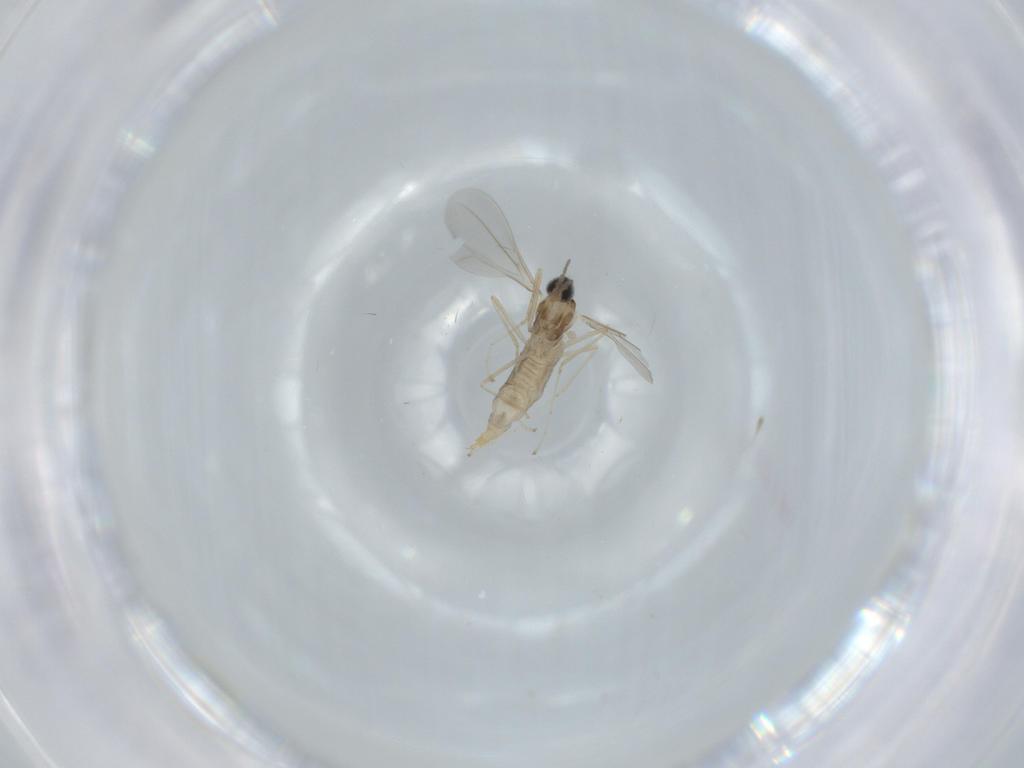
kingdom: Animalia
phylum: Arthropoda
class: Insecta
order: Diptera
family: Cecidomyiidae
